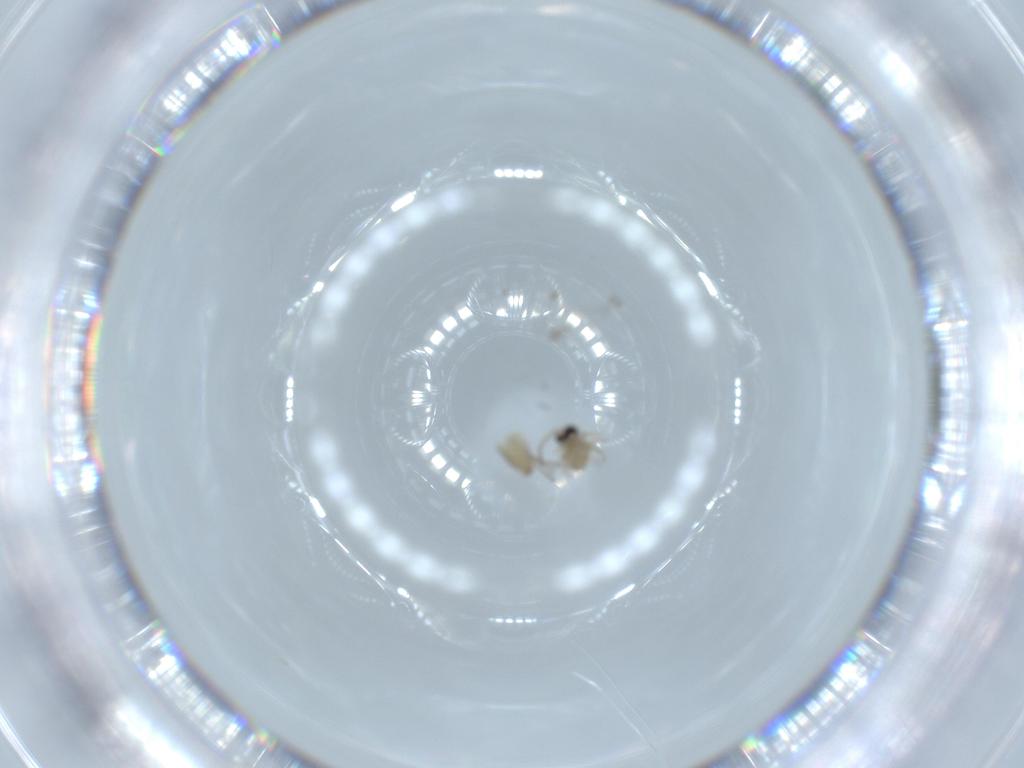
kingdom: Animalia
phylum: Arthropoda
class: Insecta
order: Diptera
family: Cecidomyiidae
